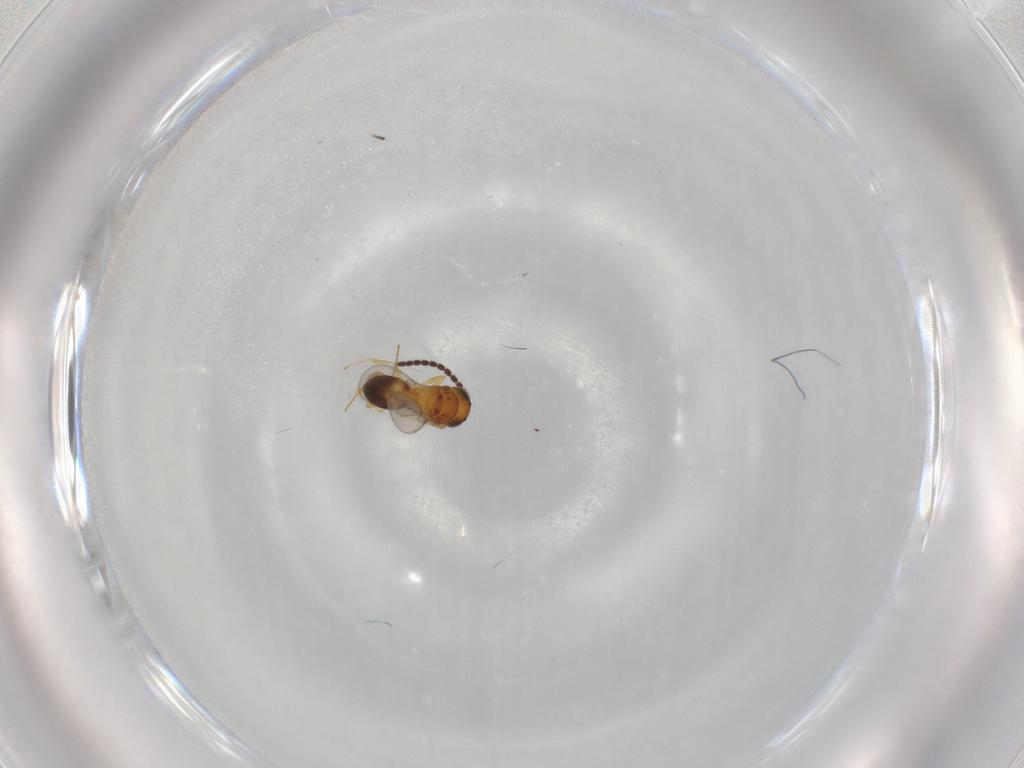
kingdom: Animalia
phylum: Arthropoda
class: Insecta
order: Hymenoptera
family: Scelionidae
